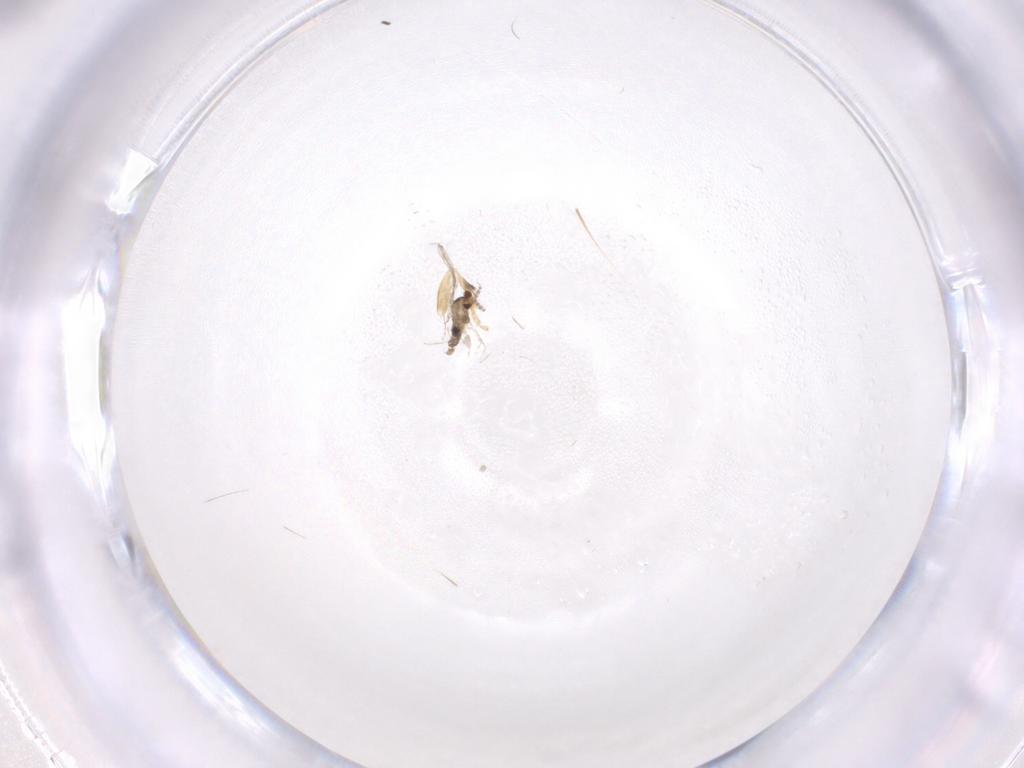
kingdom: Animalia
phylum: Arthropoda
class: Insecta
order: Diptera
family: Cecidomyiidae
